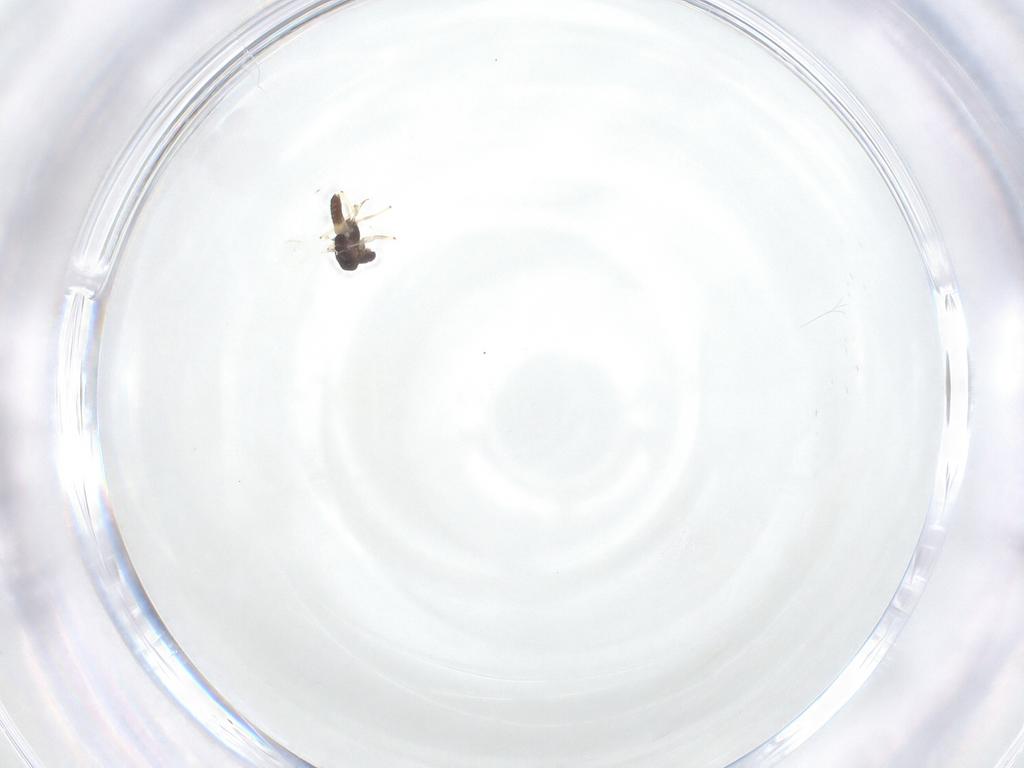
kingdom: Animalia
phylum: Arthropoda
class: Insecta
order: Diptera
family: Chironomidae
